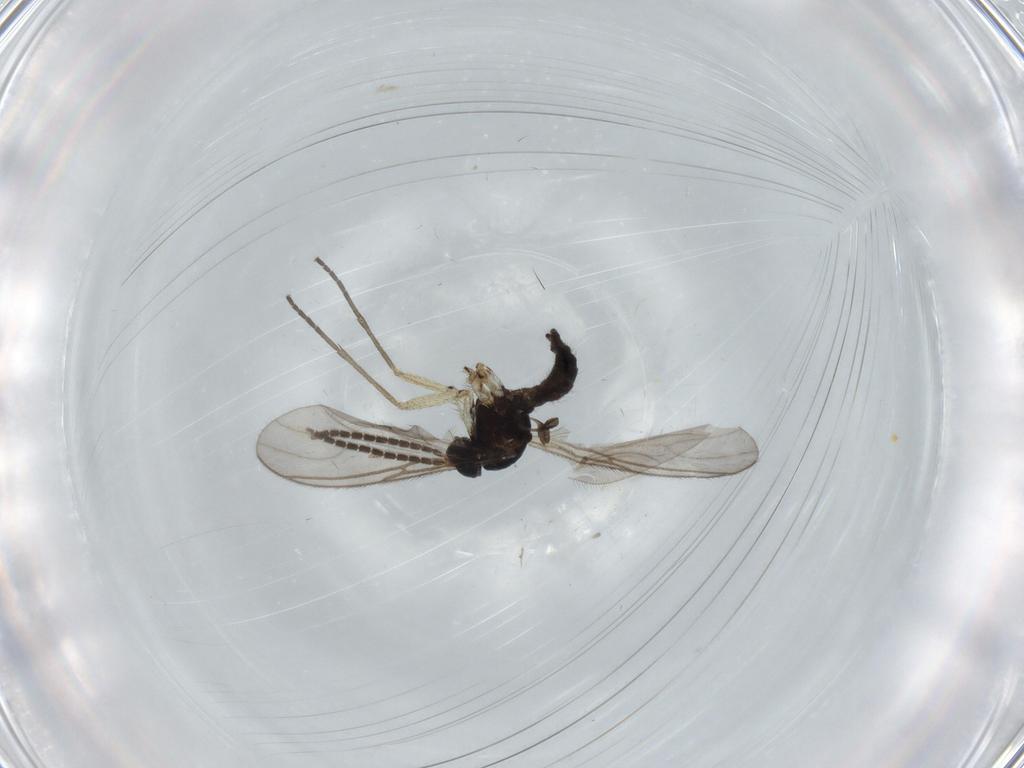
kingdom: Animalia
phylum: Arthropoda
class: Insecta
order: Diptera
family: Sciaridae
